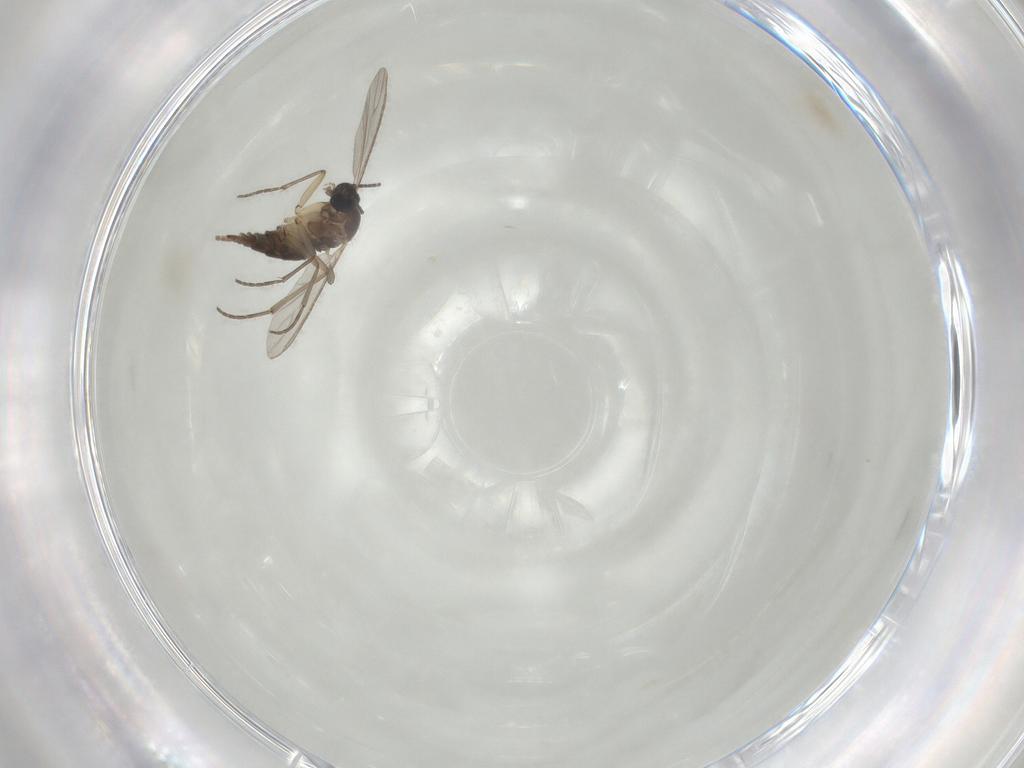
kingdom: Animalia
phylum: Arthropoda
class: Insecta
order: Diptera
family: Sciaridae
